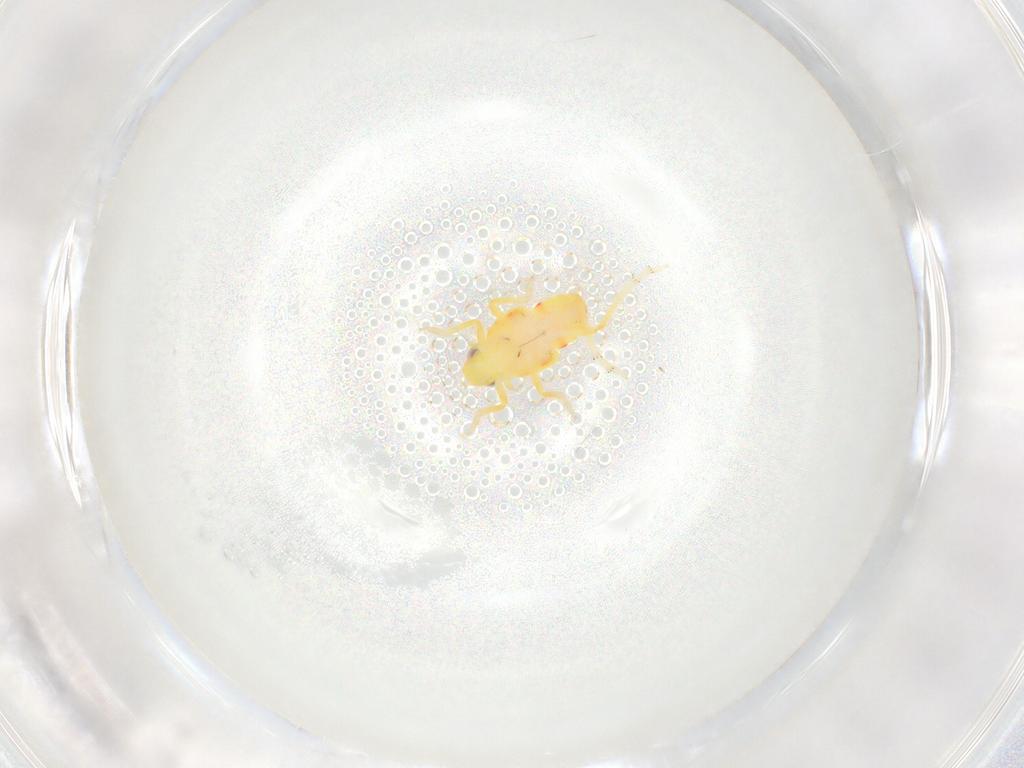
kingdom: Animalia
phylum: Arthropoda
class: Insecta
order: Hemiptera
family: Tropiduchidae
